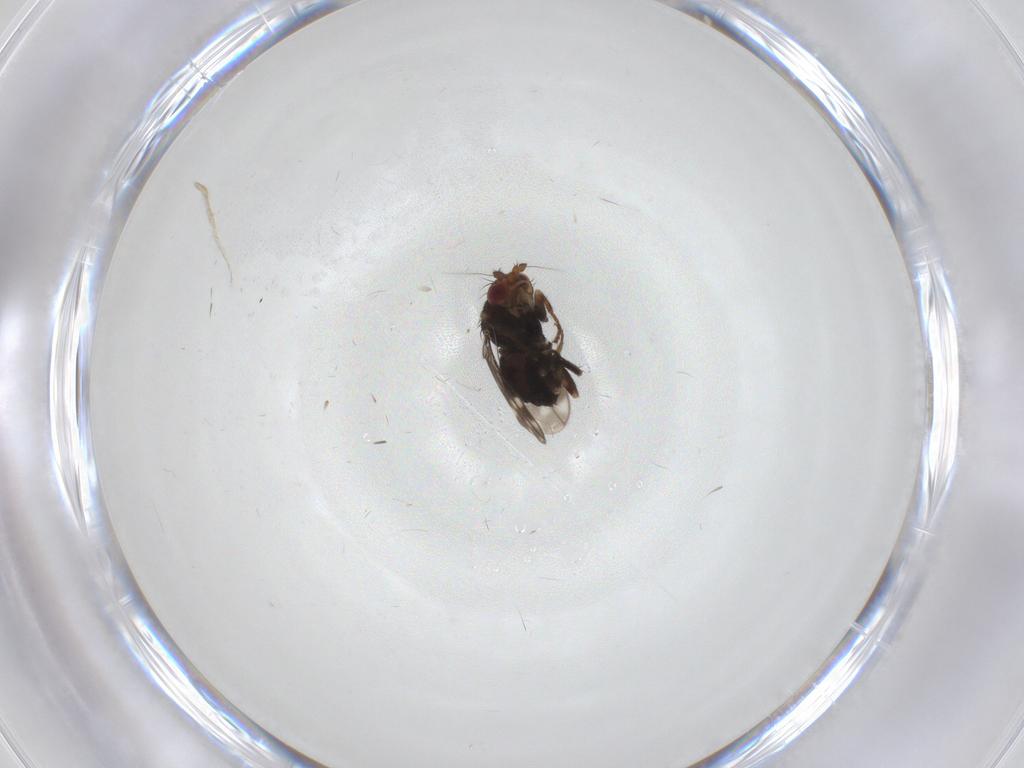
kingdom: Animalia
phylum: Arthropoda
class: Insecta
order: Diptera
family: Sphaeroceridae
